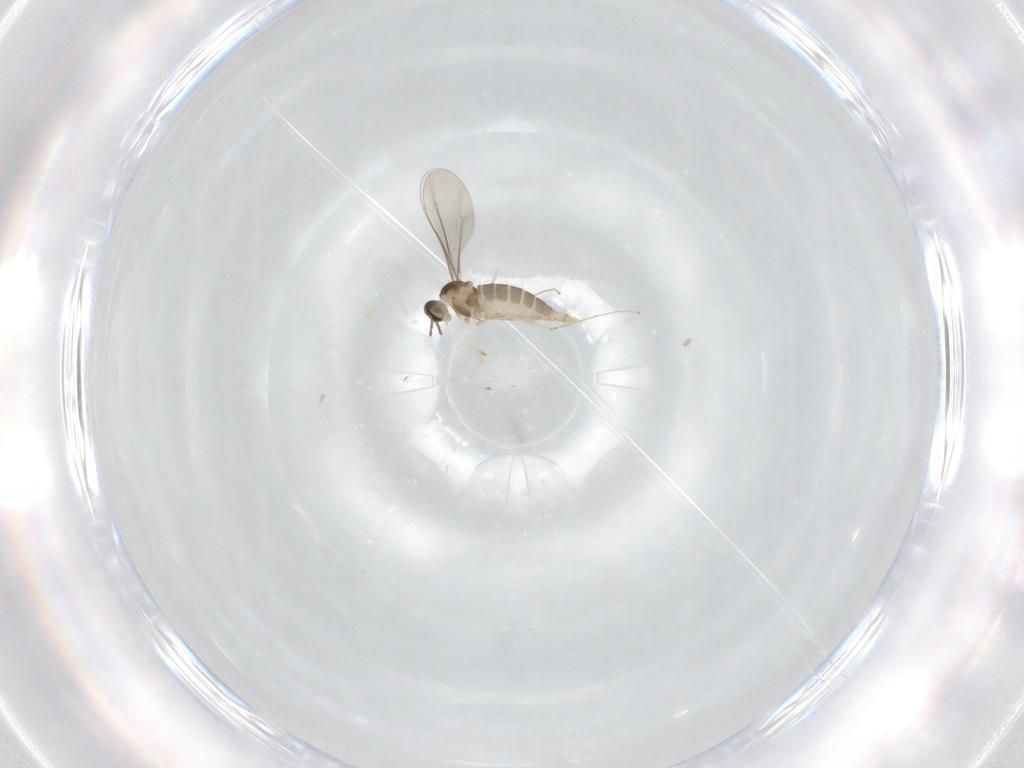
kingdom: Animalia
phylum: Arthropoda
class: Insecta
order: Diptera
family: Cecidomyiidae
